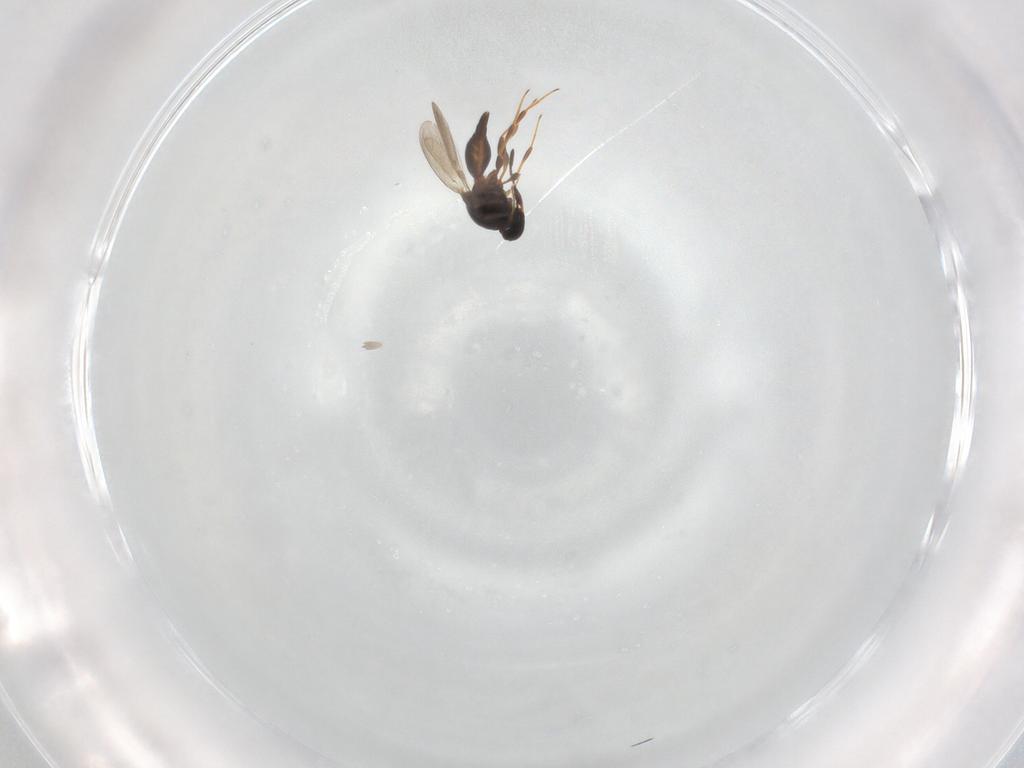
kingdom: Animalia
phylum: Arthropoda
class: Insecta
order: Hymenoptera
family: Platygastridae
